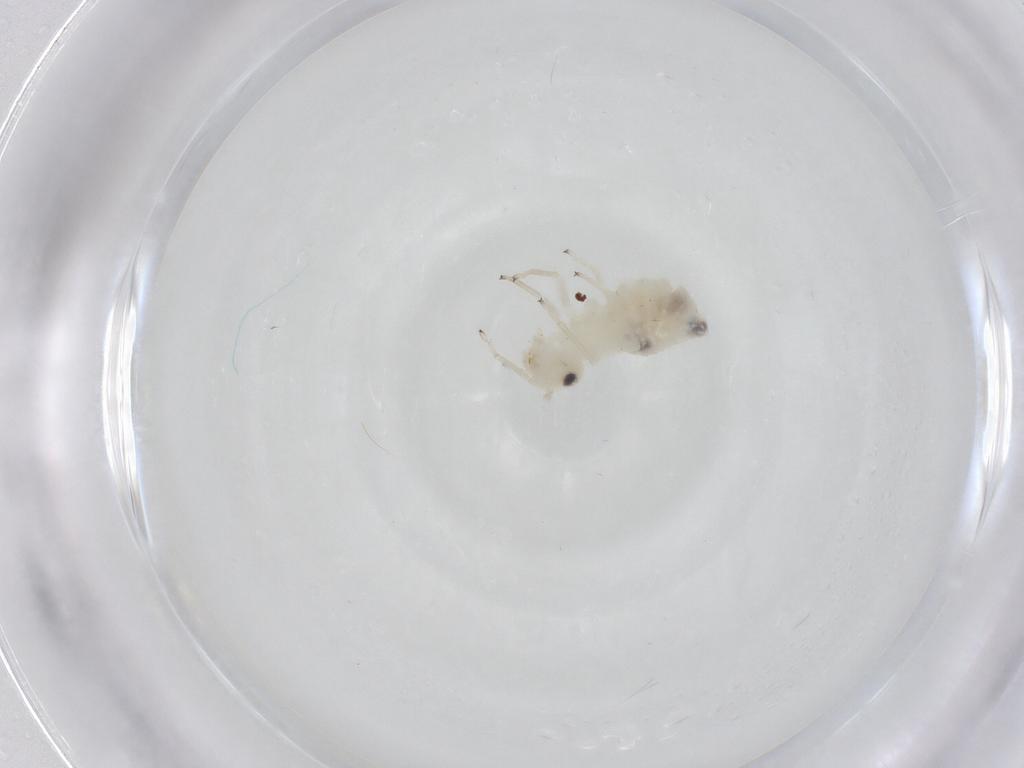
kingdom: Animalia
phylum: Arthropoda
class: Insecta
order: Psocodea
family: Caeciliusidae
